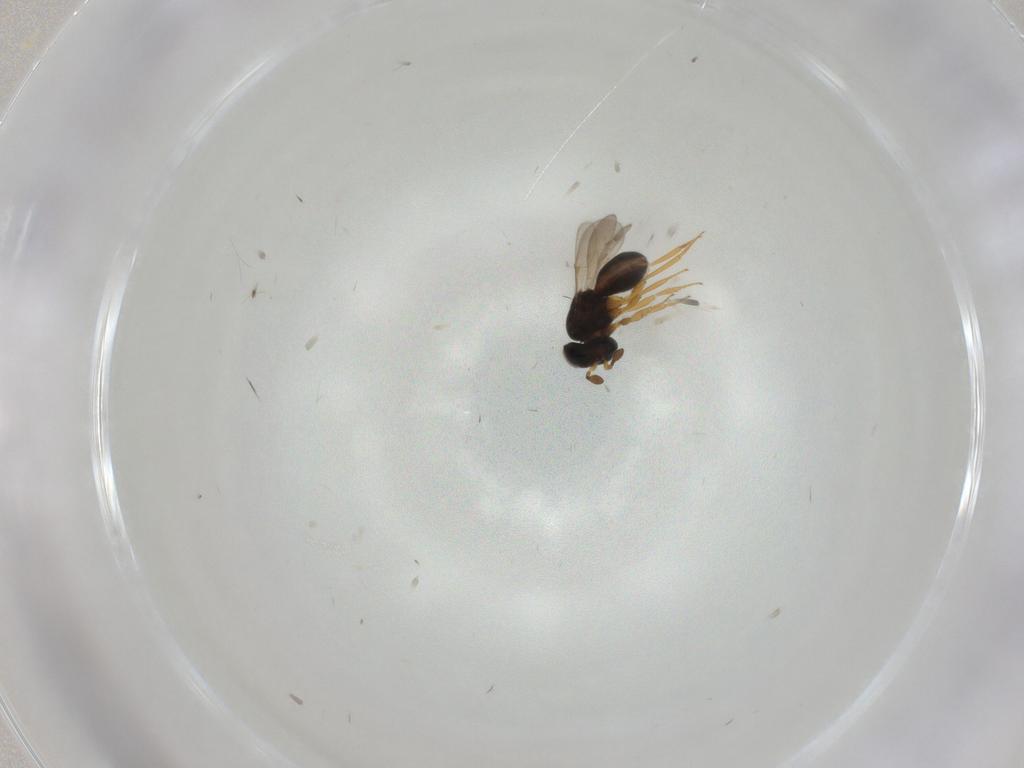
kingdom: Animalia
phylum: Arthropoda
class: Insecta
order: Hymenoptera
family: Scelionidae
